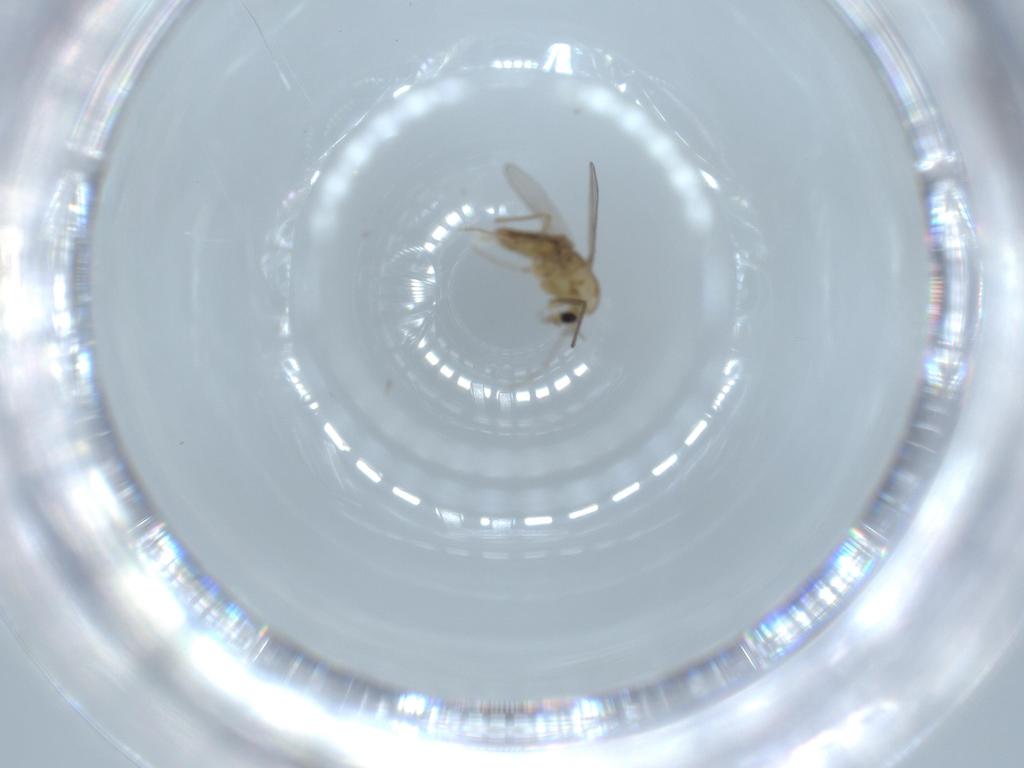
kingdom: Animalia
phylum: Arthropoda
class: Insecta
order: Diptera
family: Chironomidae
